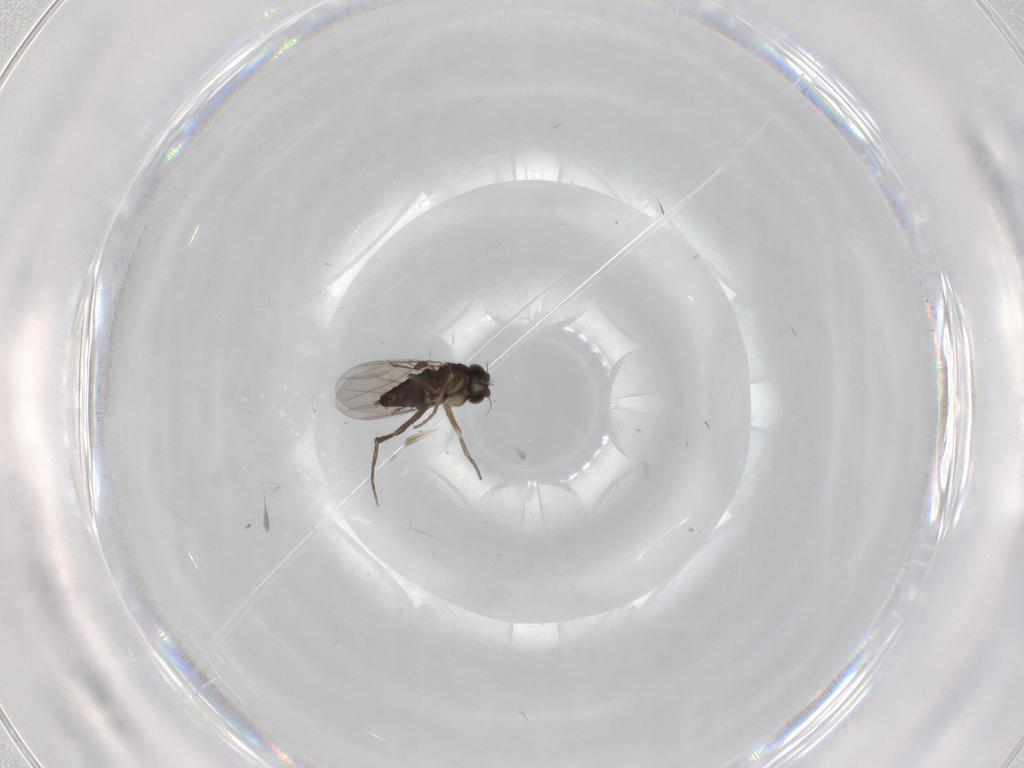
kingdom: Animalia
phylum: Arthropoda
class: Insecta
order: Diptera
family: Phoridae
